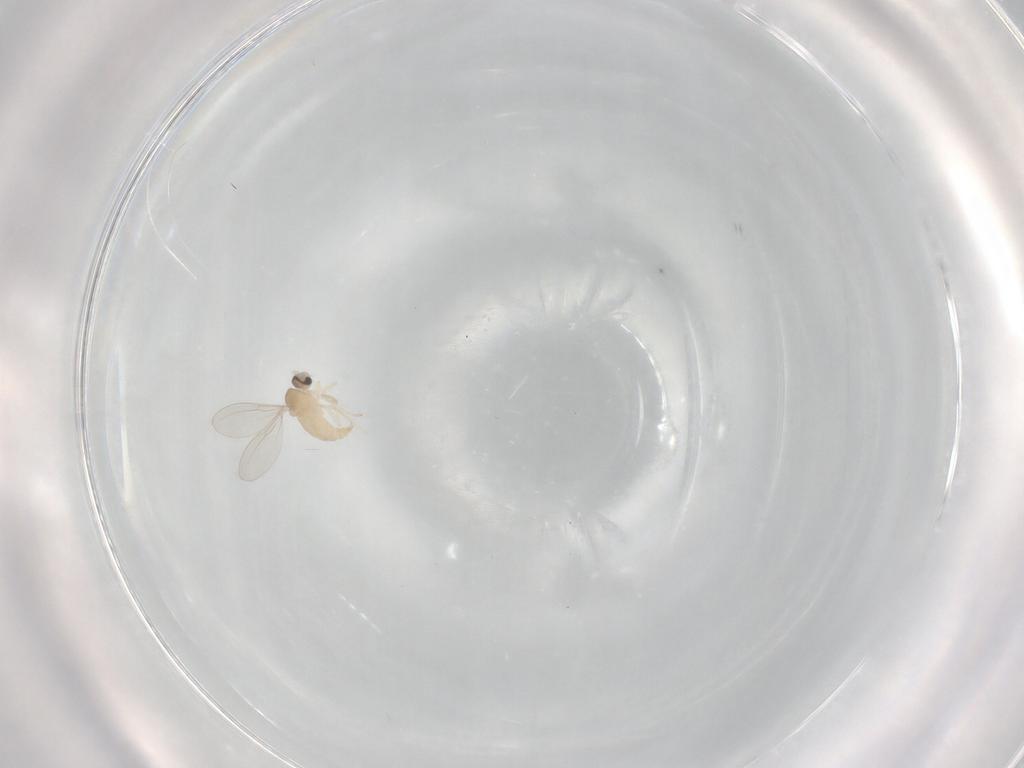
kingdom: Animalia
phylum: Arthropoda
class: Insecta
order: Diptera
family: Cecidomyiidae
